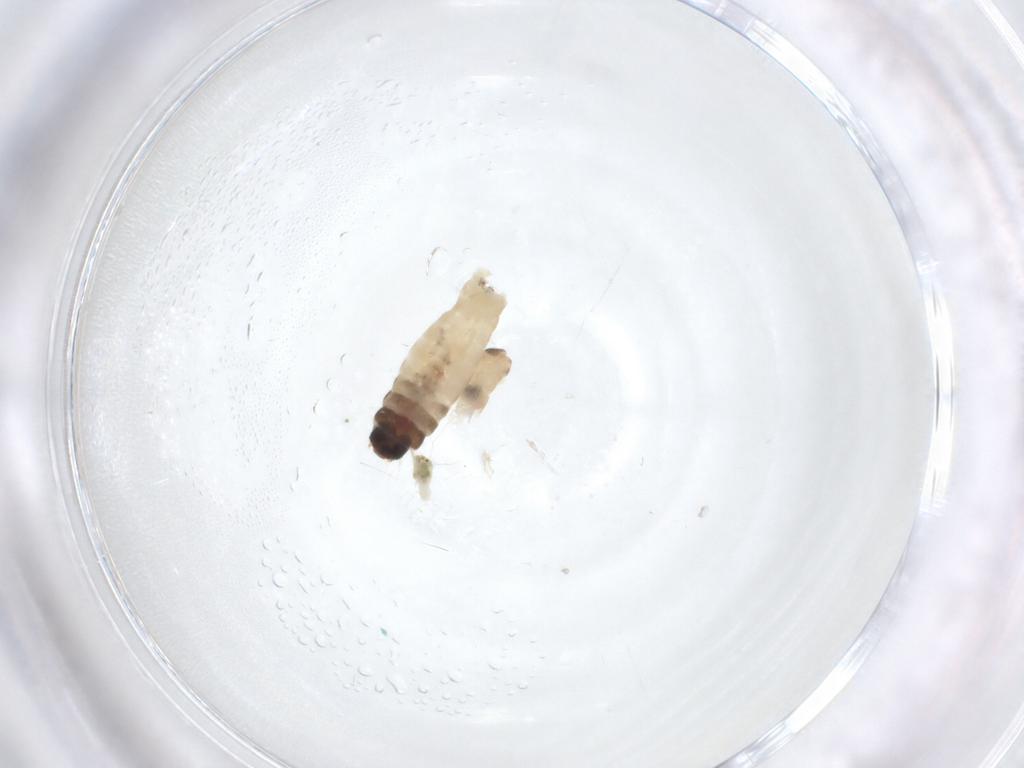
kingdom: Animalia
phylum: Arthropoda
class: Insecta
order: Lepidoptera
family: Psychidae
